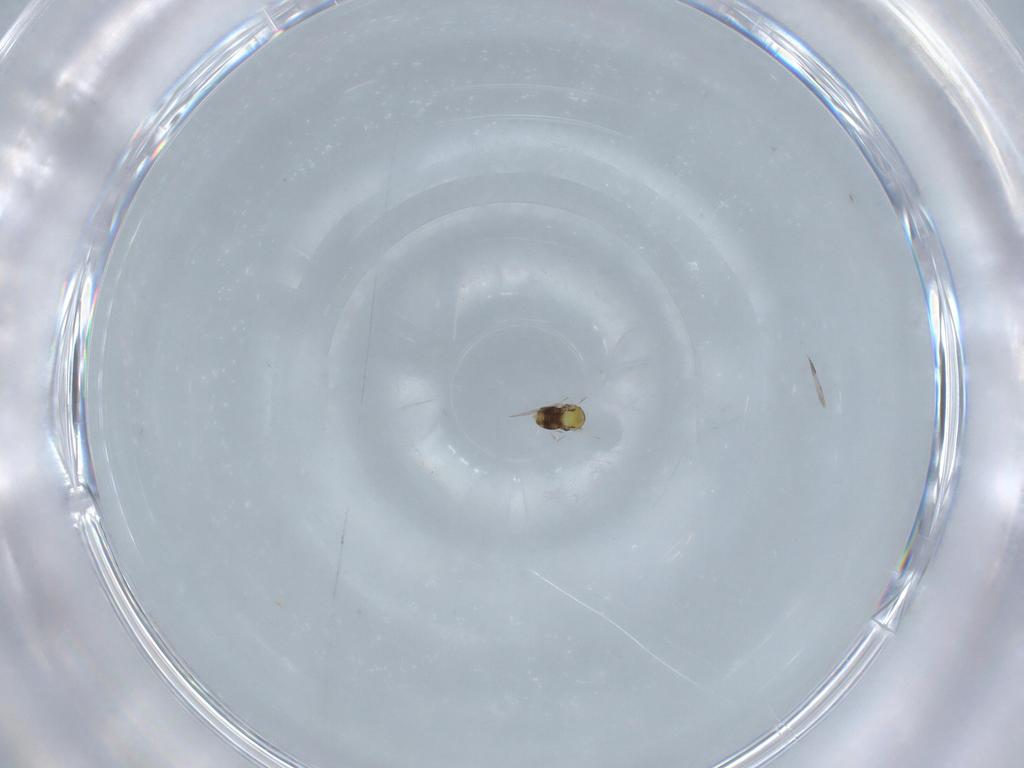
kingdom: Animalia
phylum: Arthropoda
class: Insecta
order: Hymenoptera
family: Aphelinidae
